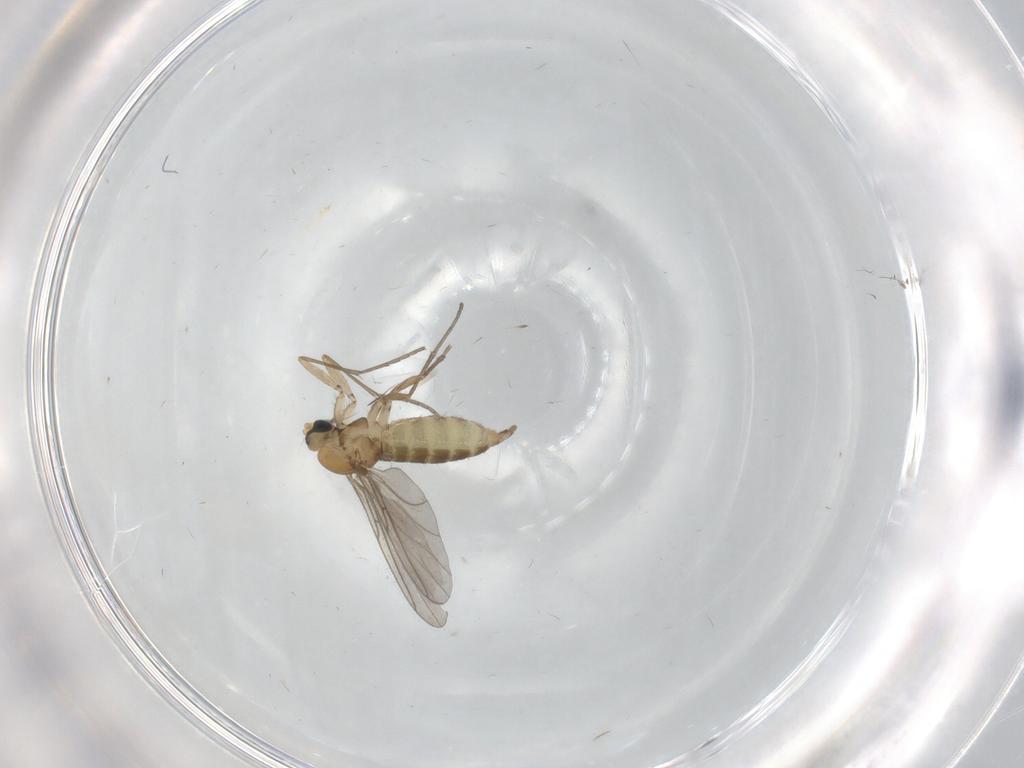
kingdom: Animalia
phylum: Arthropoda
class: Insecta
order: Diptera
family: Sciaridae
